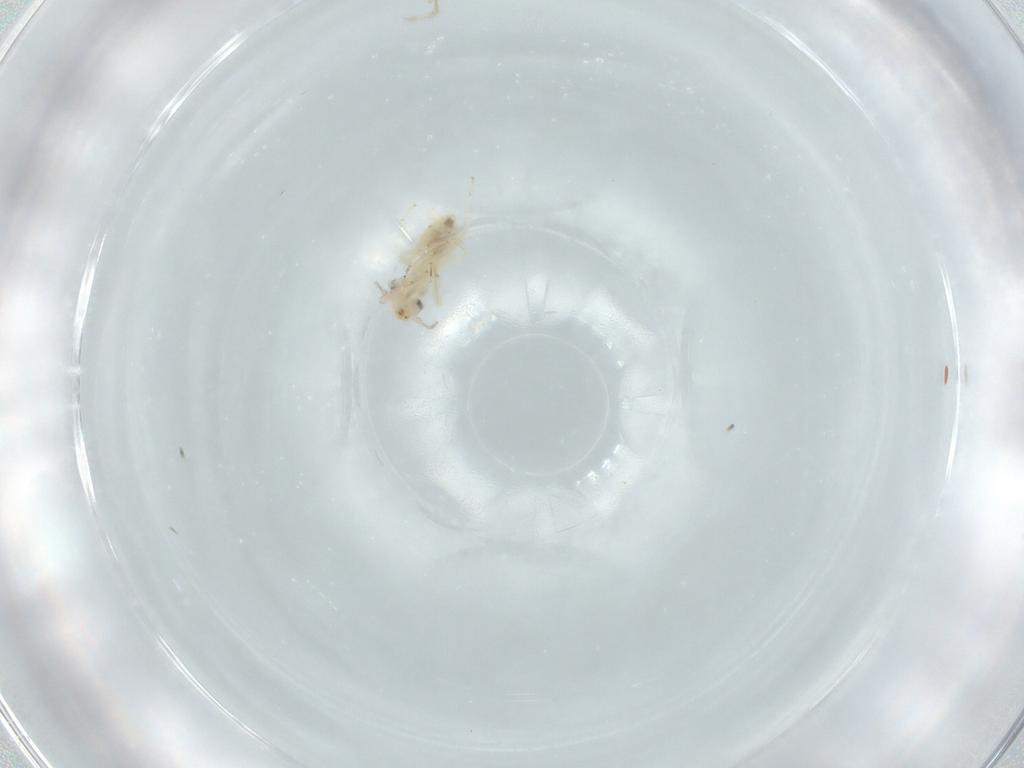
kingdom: Animalia
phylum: Arthropoda
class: Insecta
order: Psocodea
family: Lepidopsocidae
